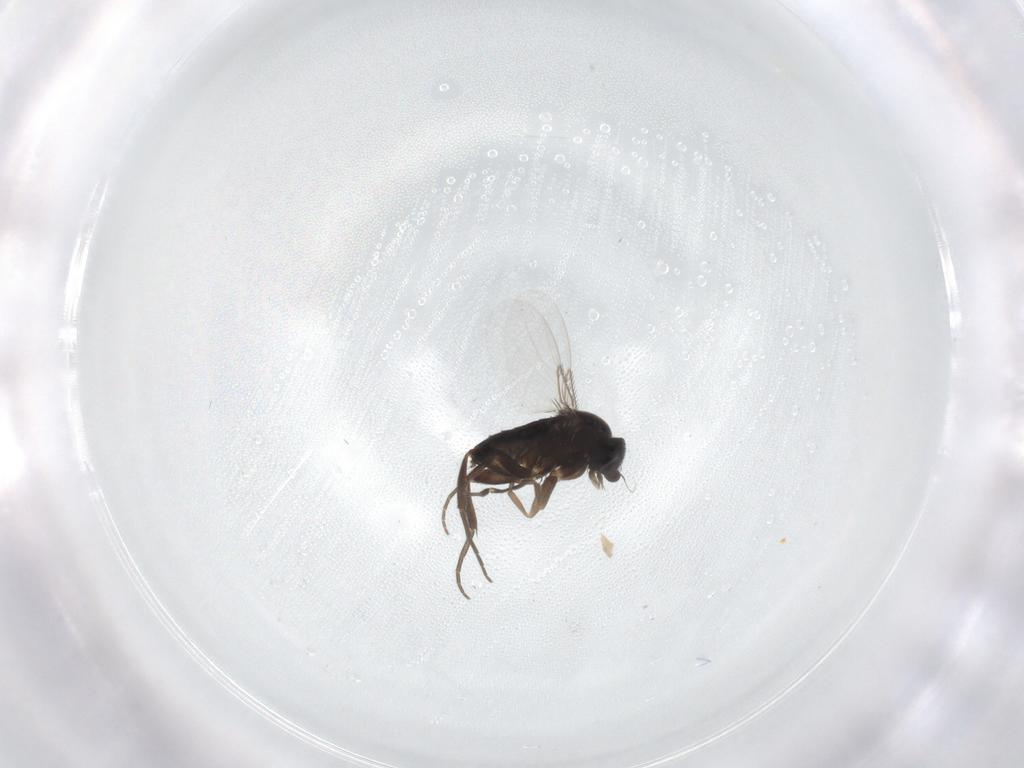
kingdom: Animalia
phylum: Arthropoda
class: Insecta
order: Diptera
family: Phoridae
